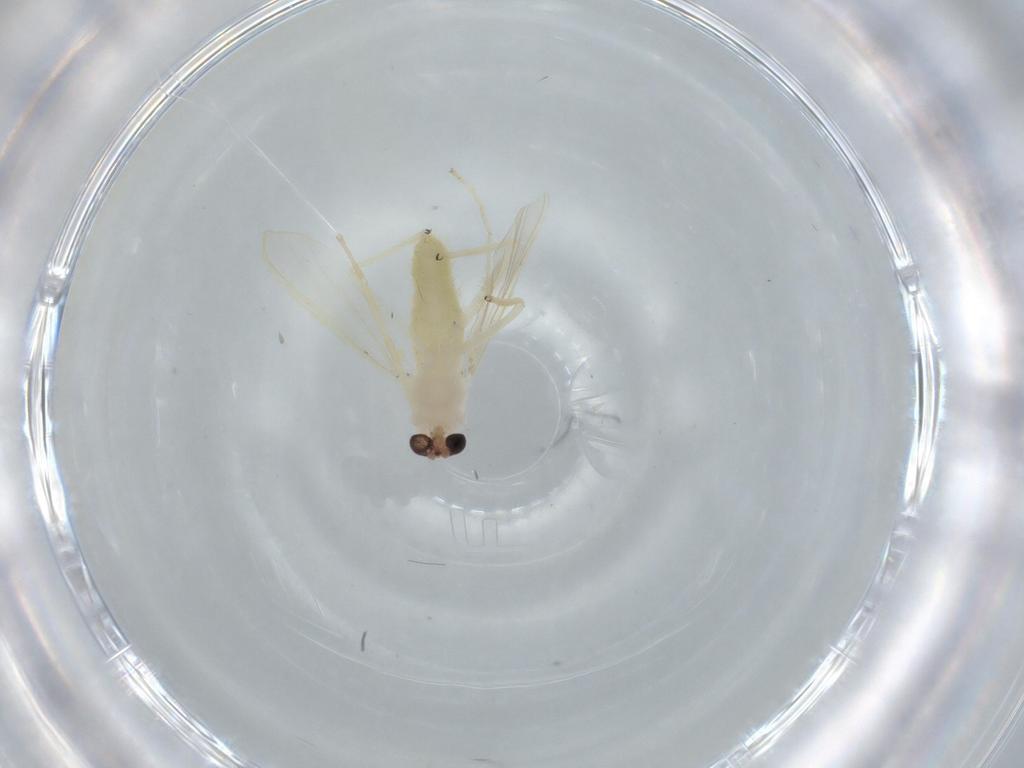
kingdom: Animalia
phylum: Arthropoda
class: Insecta
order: Diptera
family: Chironomidae
